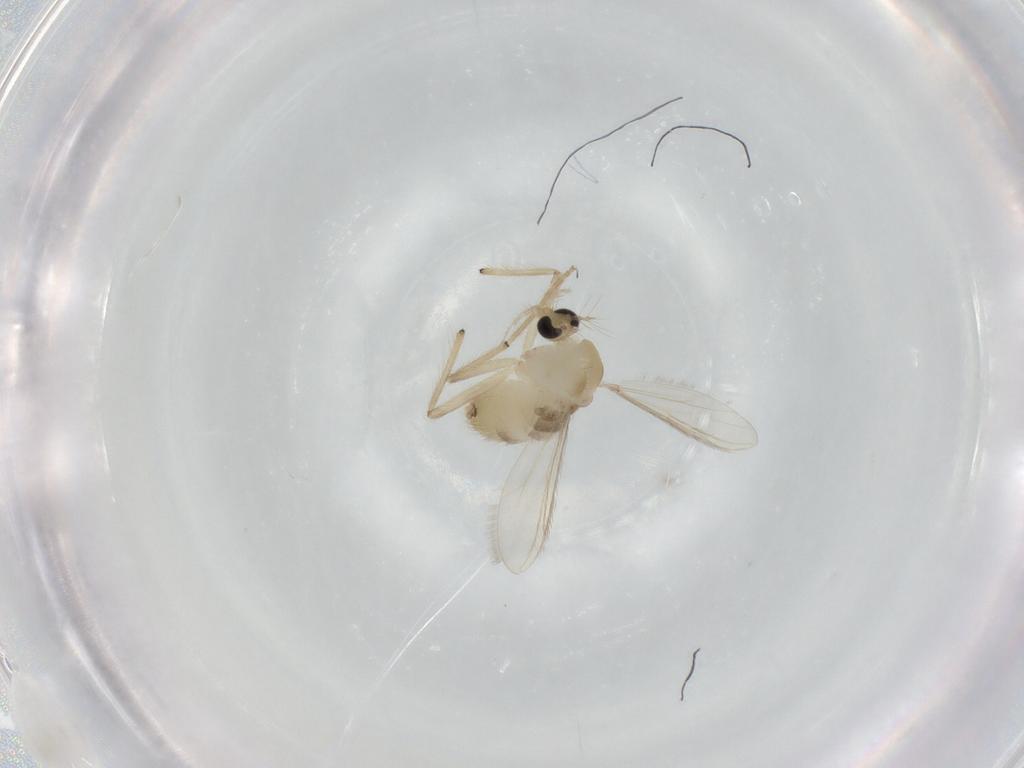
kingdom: Animalia
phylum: Arthropoda
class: Insecta
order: Diptera
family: Chironomidae
